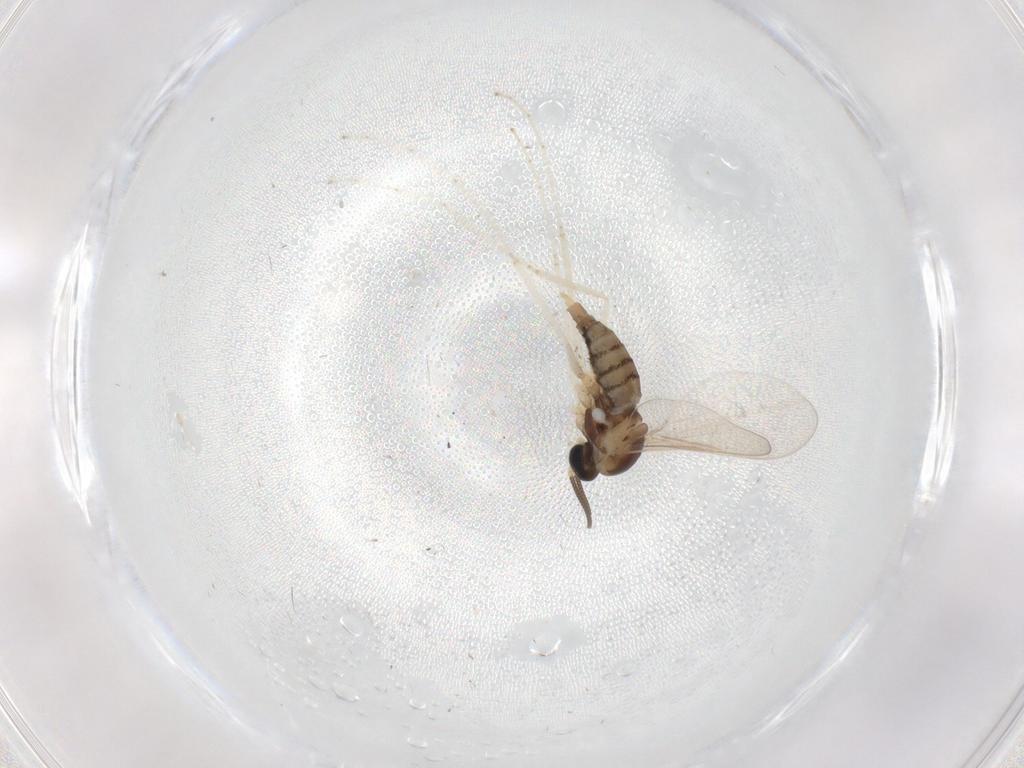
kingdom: Animalia
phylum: Arthropoda
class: Insecta
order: Diptera
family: Cecidomyiidae
